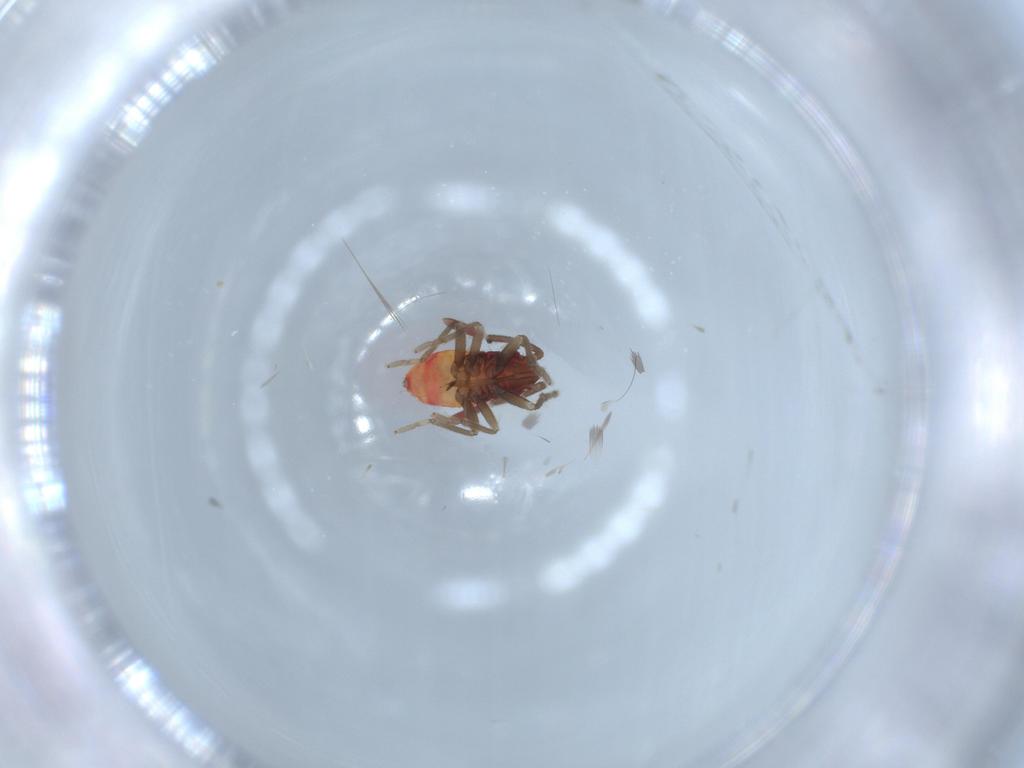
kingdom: Animalia
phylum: Arthropoda
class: Insecta
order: Hemiptera
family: Rhyparochromidae
